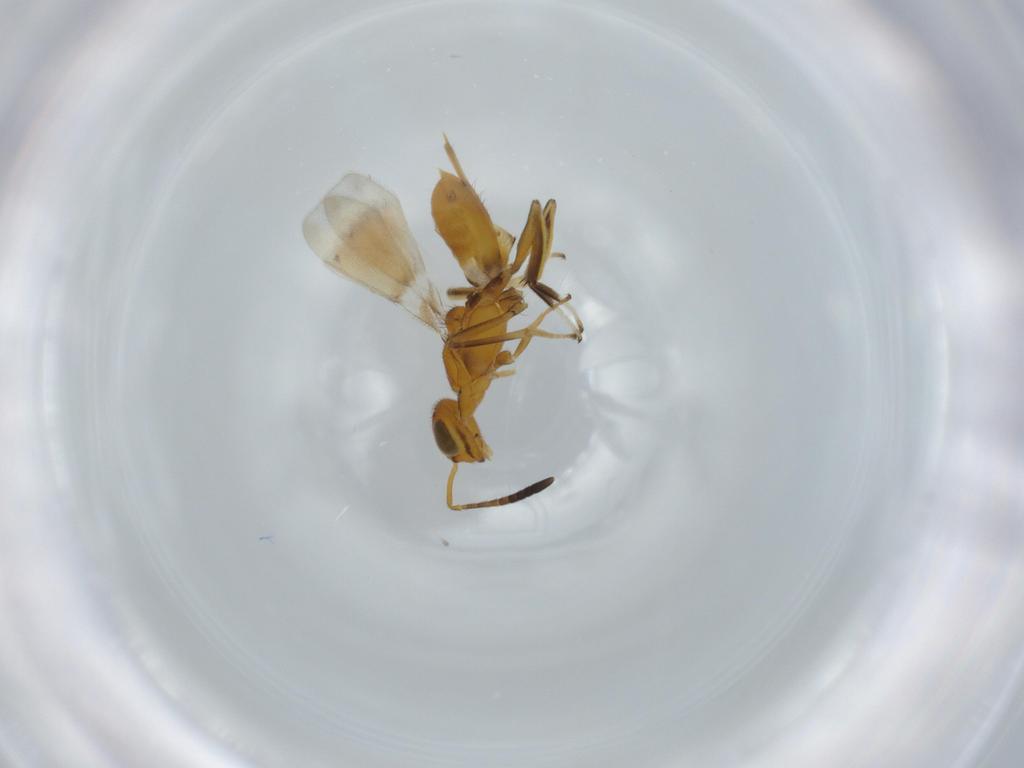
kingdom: Animalia
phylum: Arthropoda
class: Insecta
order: Hymenoptera
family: Eupelmidae
